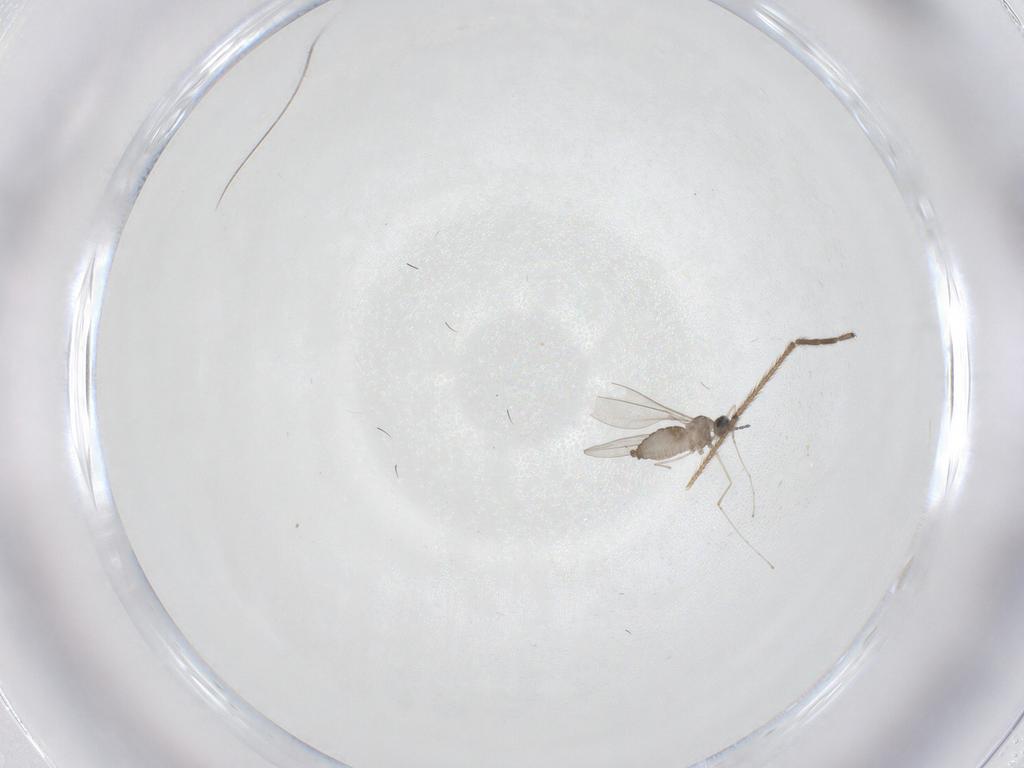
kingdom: Animalia
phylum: Arthropoda
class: Insecta
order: Diptera
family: Cecidomyiidae
